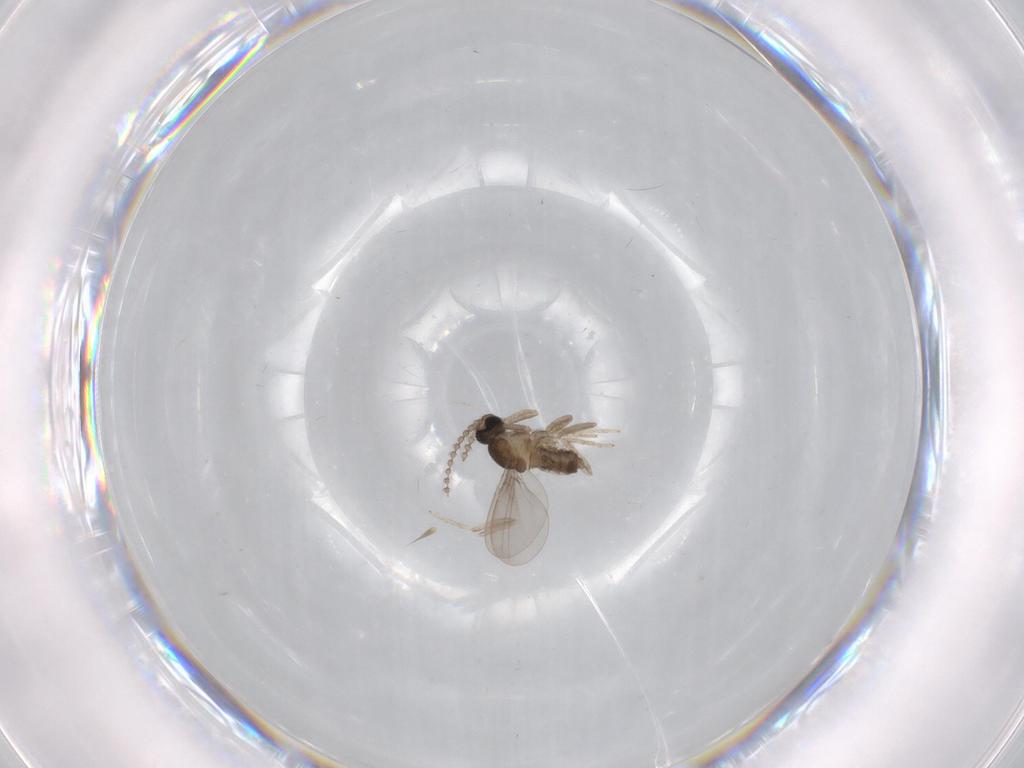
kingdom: Animalia
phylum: Arthropoda
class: Insecta
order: Diptera
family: Cecidomyiidae
